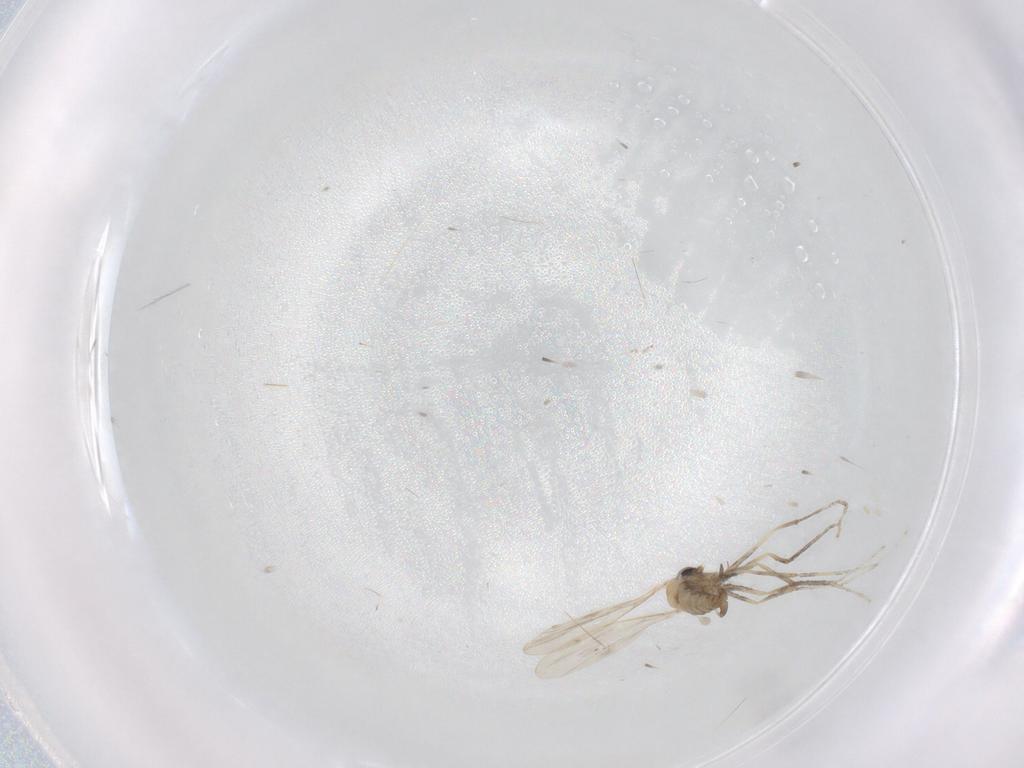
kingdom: Animalia
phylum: Arthropoda
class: Insecta
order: Diptera
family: Cecidomyiidae
